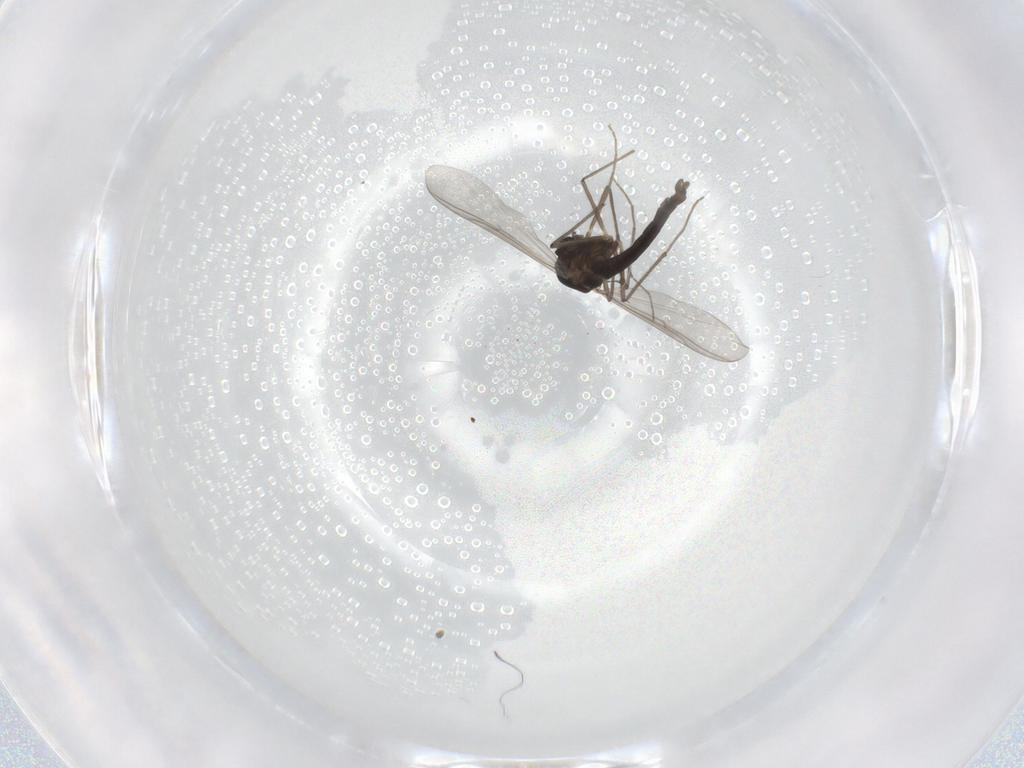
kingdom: Animalia
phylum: Arthropoda
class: Insecta
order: Diptera
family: Chironomidae
